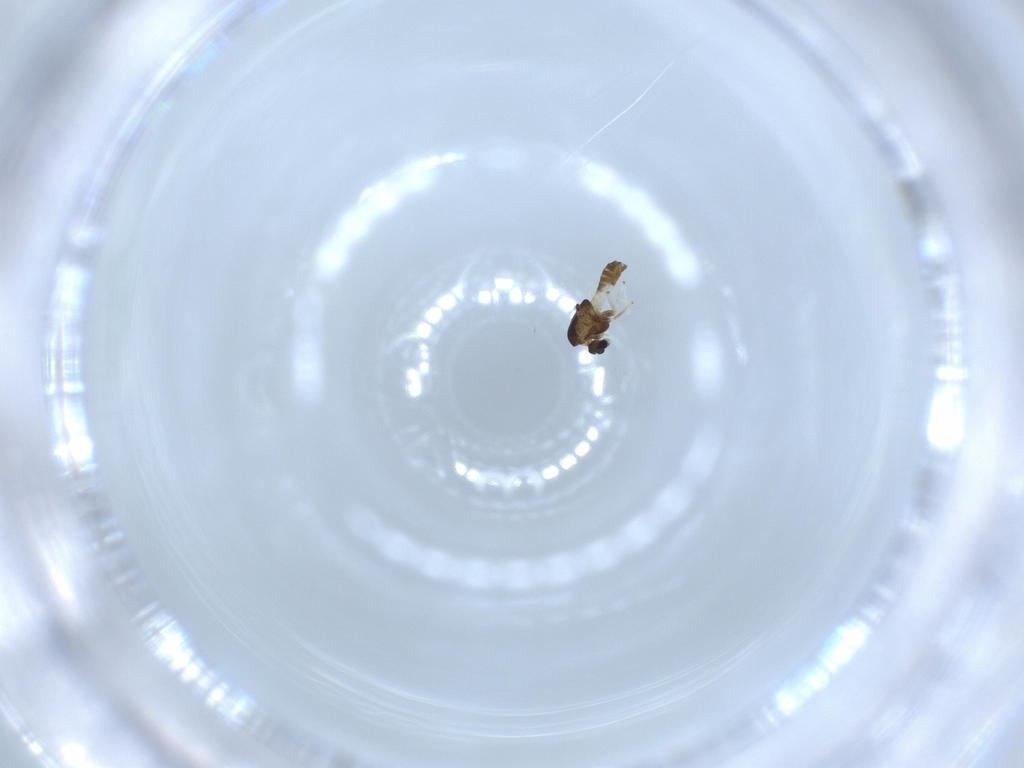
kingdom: Animalia
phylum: Arthropoda
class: Insecta
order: Diptera
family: Chironomidae
